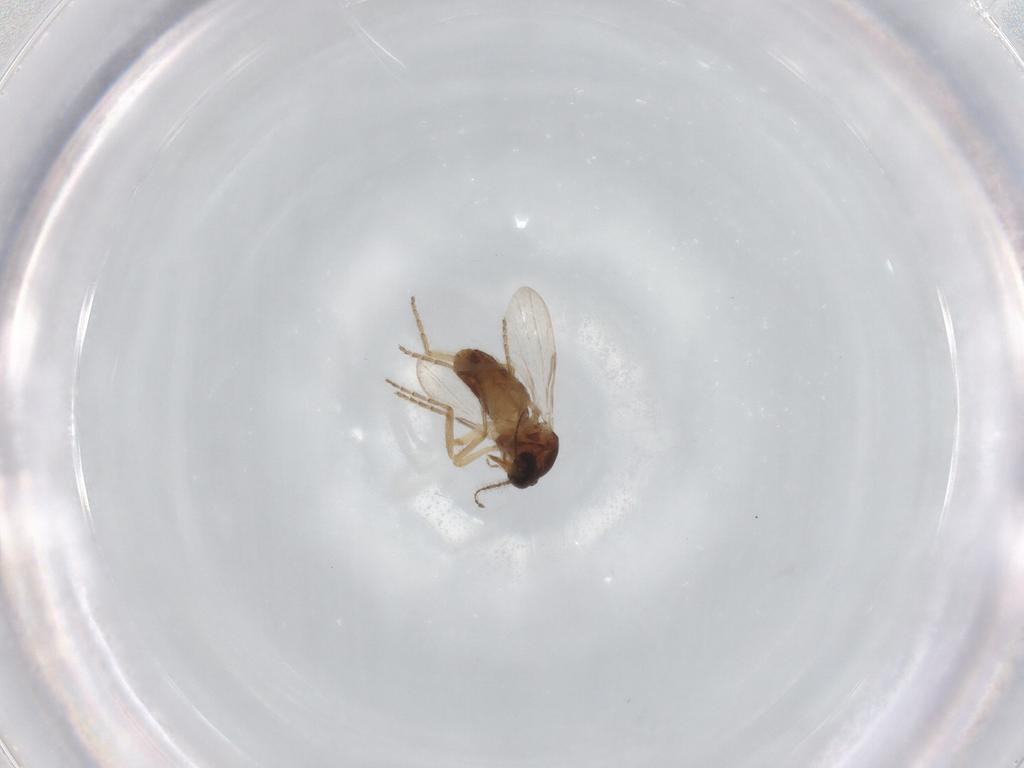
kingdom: Animalia
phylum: Arthropoda
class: Insecta
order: Diptera
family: Ceratopogonidae
